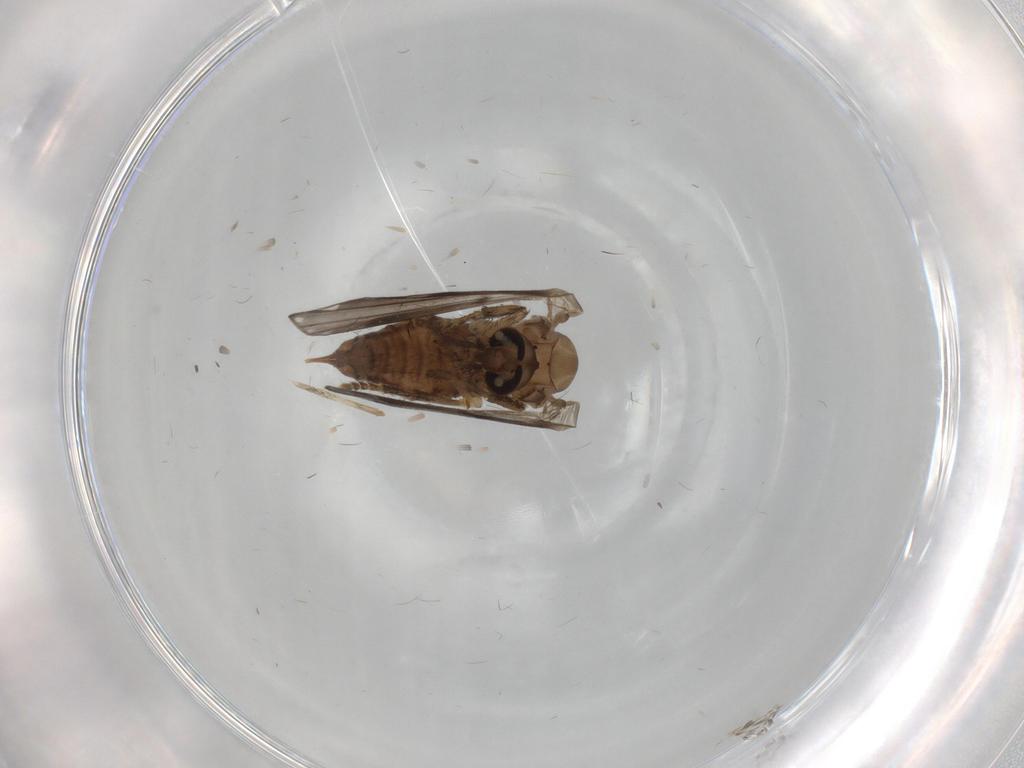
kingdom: Animalia
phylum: Arthropoda
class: Insecta
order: Diptera
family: Psychodidae
